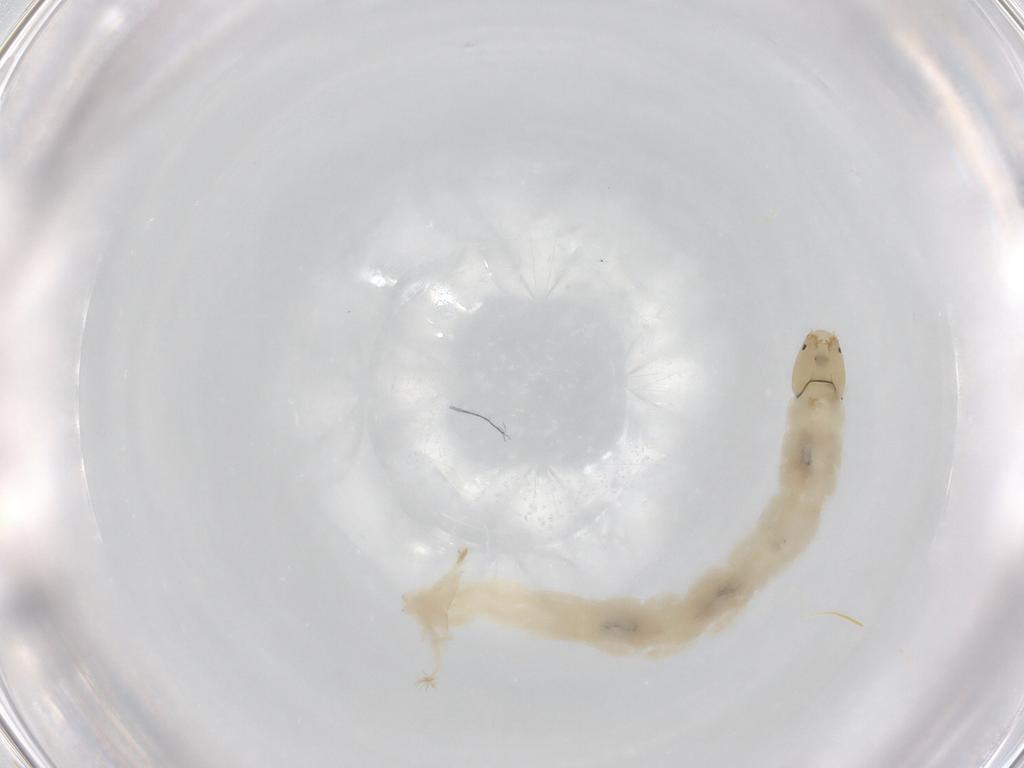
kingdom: Animalia
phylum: Arthropoda
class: Insecta
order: Diptera
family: Chironomidae
